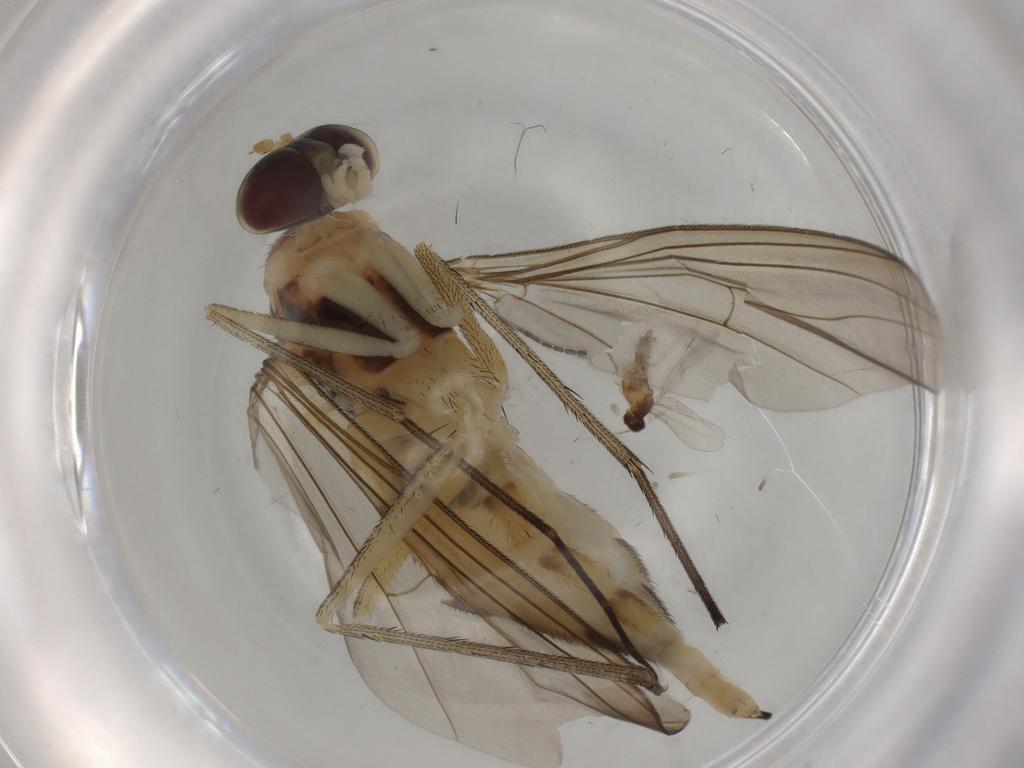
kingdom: Animalia
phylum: Arthropoda
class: Insecta
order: Diptera
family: Cecidomyiidae
